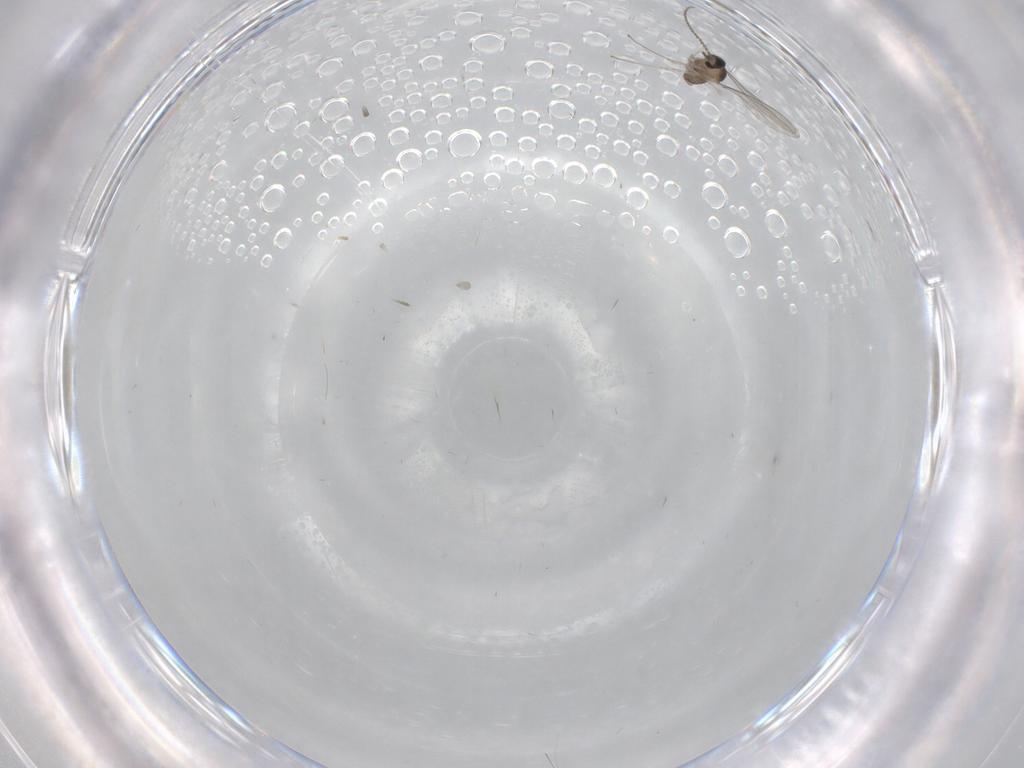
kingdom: Animalia
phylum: Arthropoda
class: Insecta
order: Diptera
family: Cecidomyiidae
